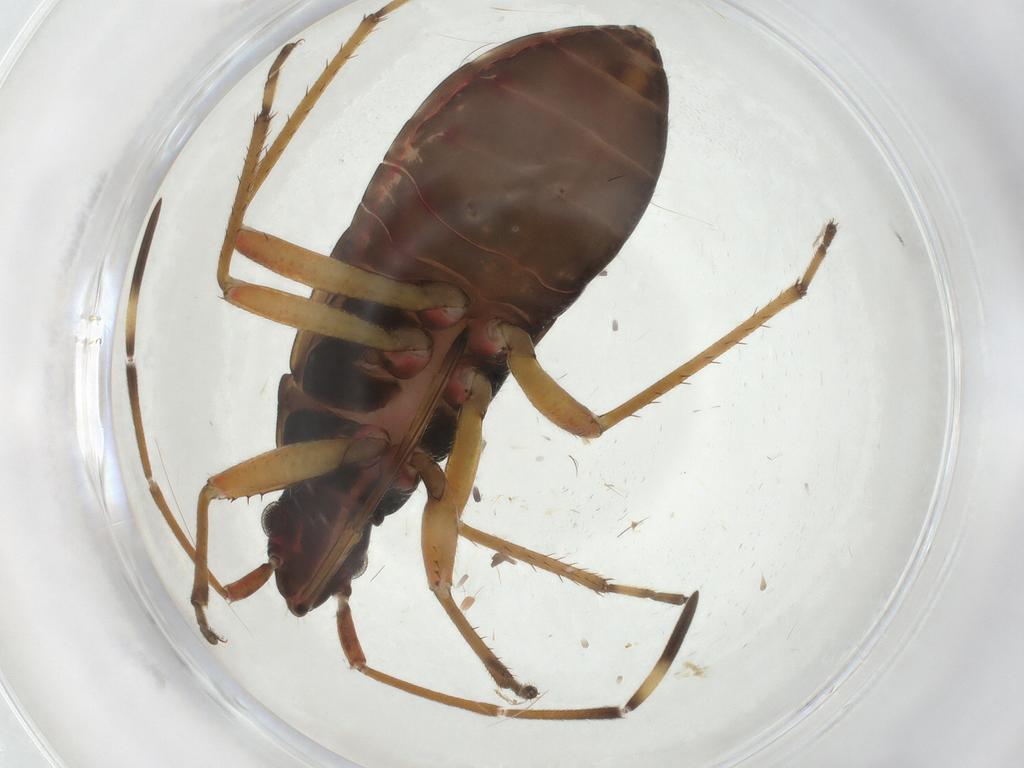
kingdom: Animalia
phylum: Arthropoda
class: Insecta
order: Hemiptera
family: Rhyparochromidae
